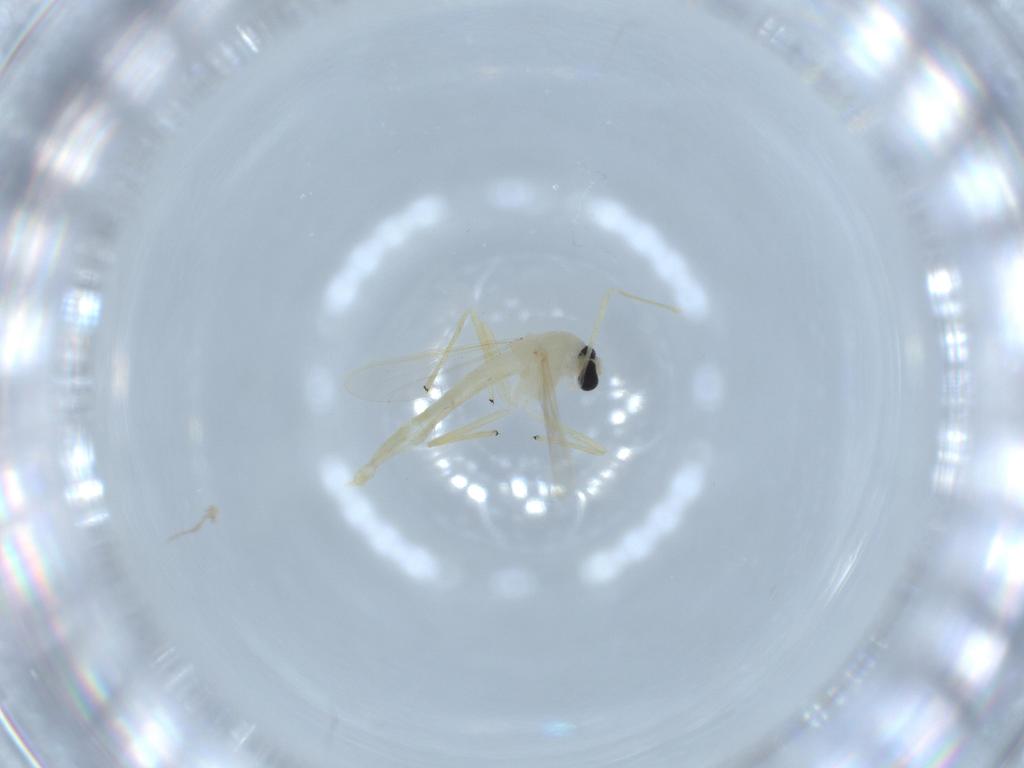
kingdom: Animalia
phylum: Arthropoda
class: Insecta
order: Diptera
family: Chironomidae
